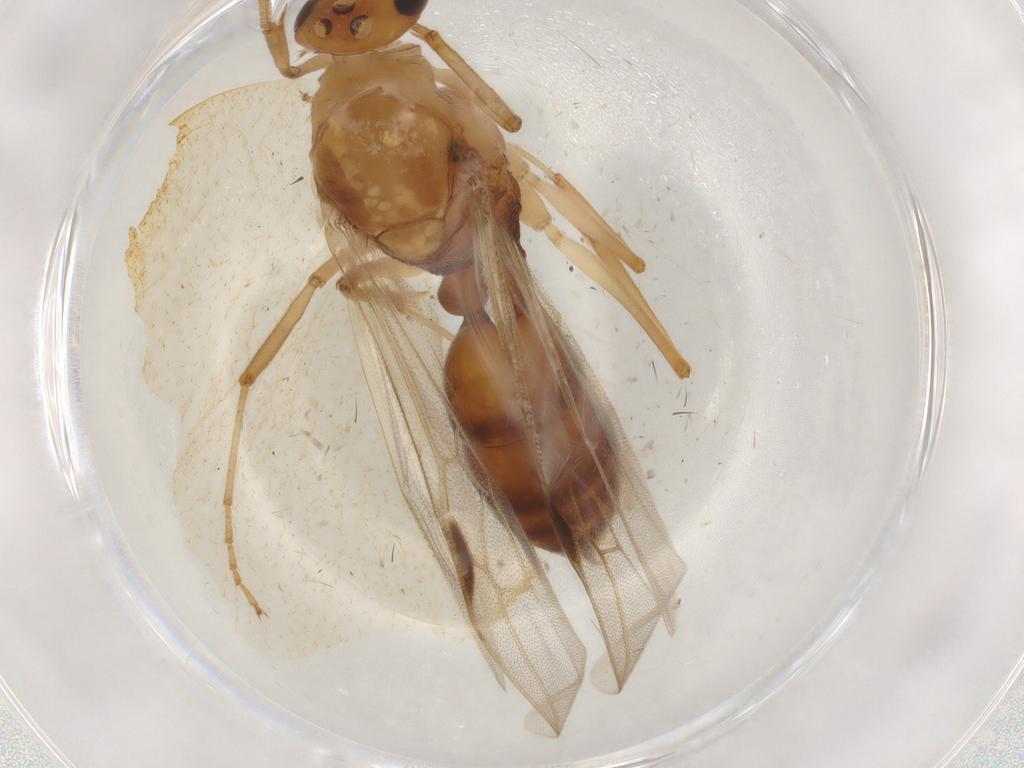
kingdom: Animalia
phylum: Arthropoda
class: Insecta
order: Hymenoptera
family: Formicidae
